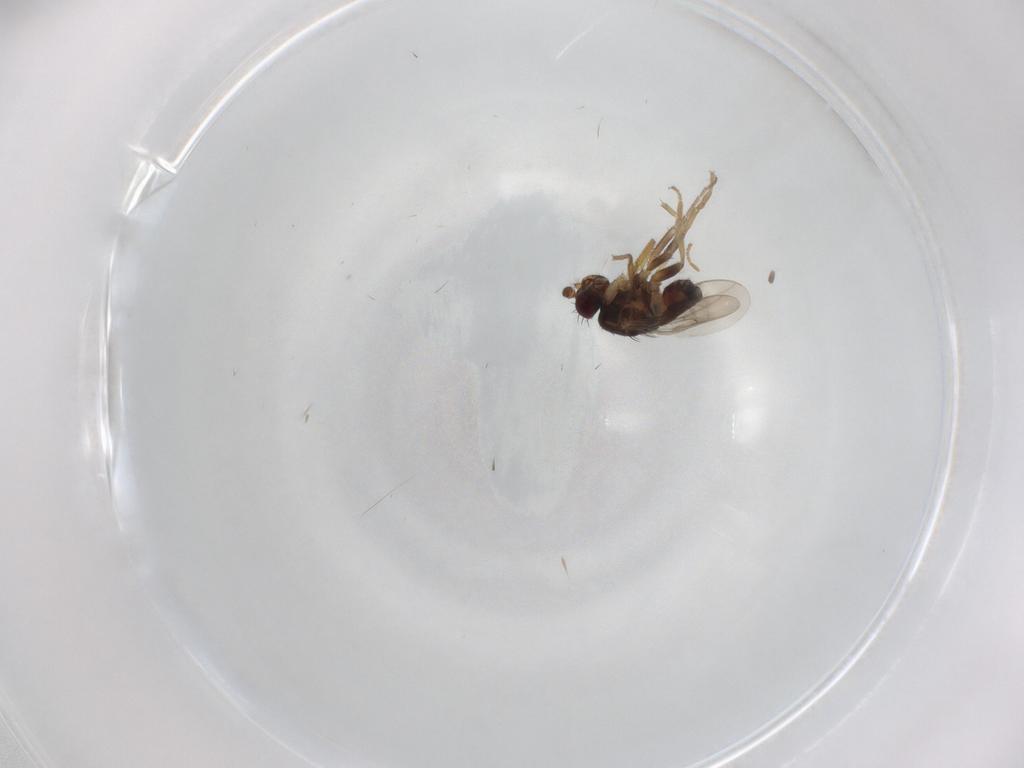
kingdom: Animalia
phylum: Arthropoda
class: Insecta
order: Diptera
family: Sphaeroceridae
